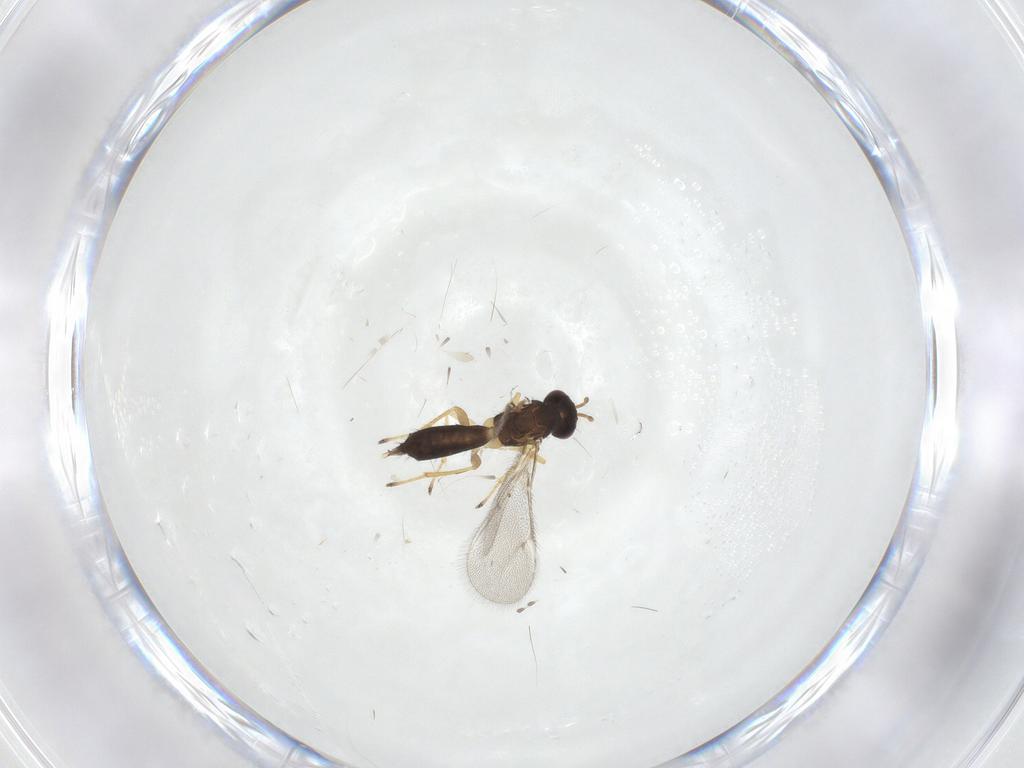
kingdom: Animalia
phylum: Arthropoda
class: Insecta
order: Hymenoptera
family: Eulophidae
